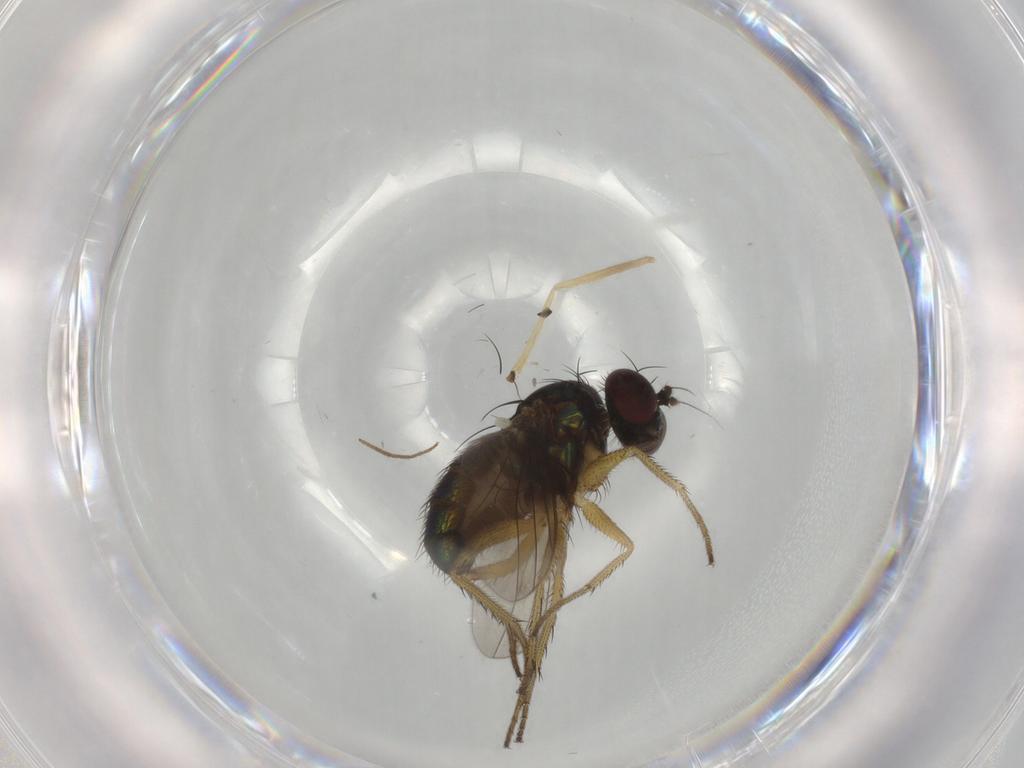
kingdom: Animalia
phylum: Arthropoda
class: Insecta
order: Diptera
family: Dolichopodidae
